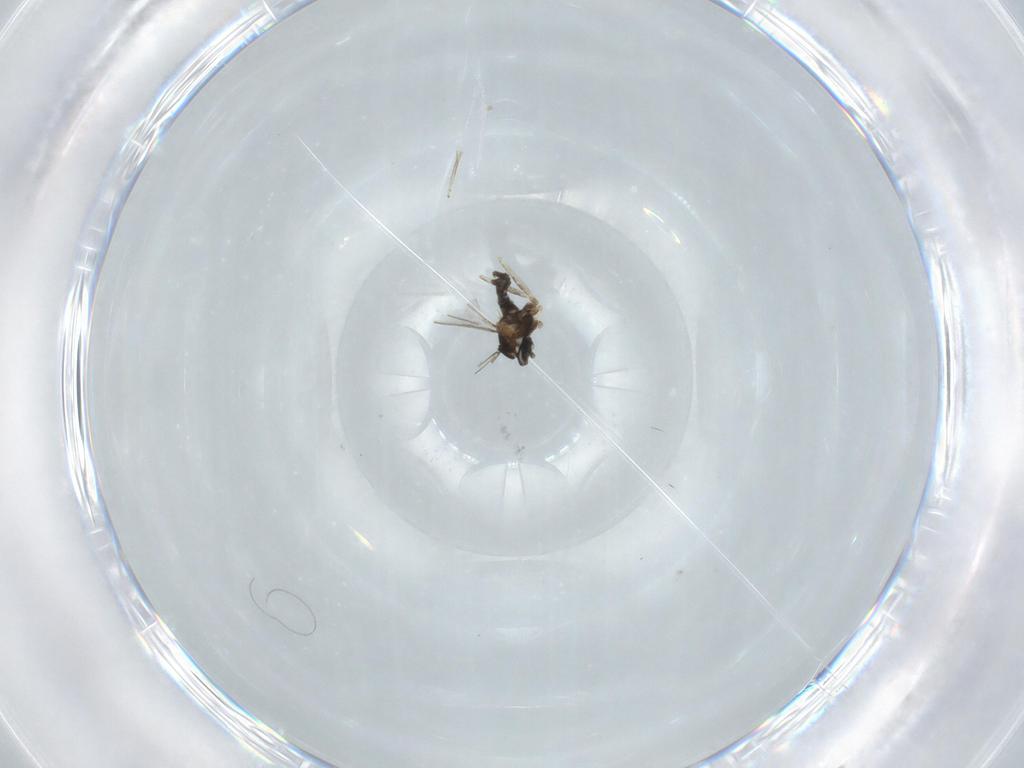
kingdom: Animalia
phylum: Arthropoda
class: Insecta
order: Diptera
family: Cecidomyiidae
